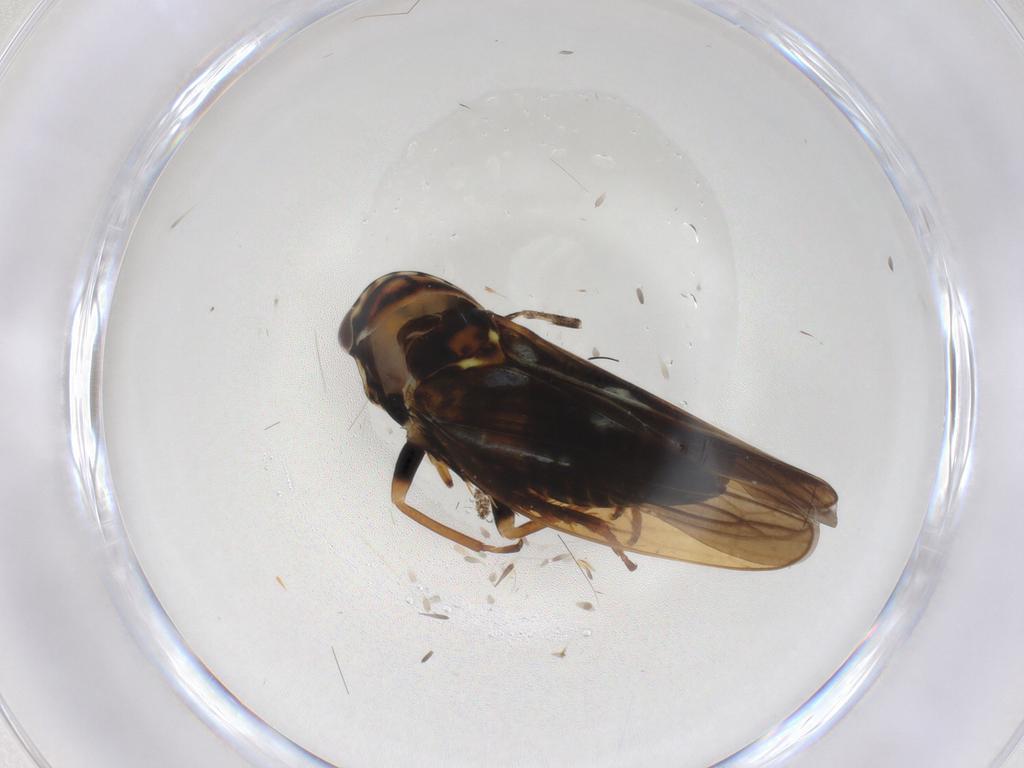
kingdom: Animalia
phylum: Arthropoda
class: Insecta
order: Hemiptera
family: Cicadellidae
